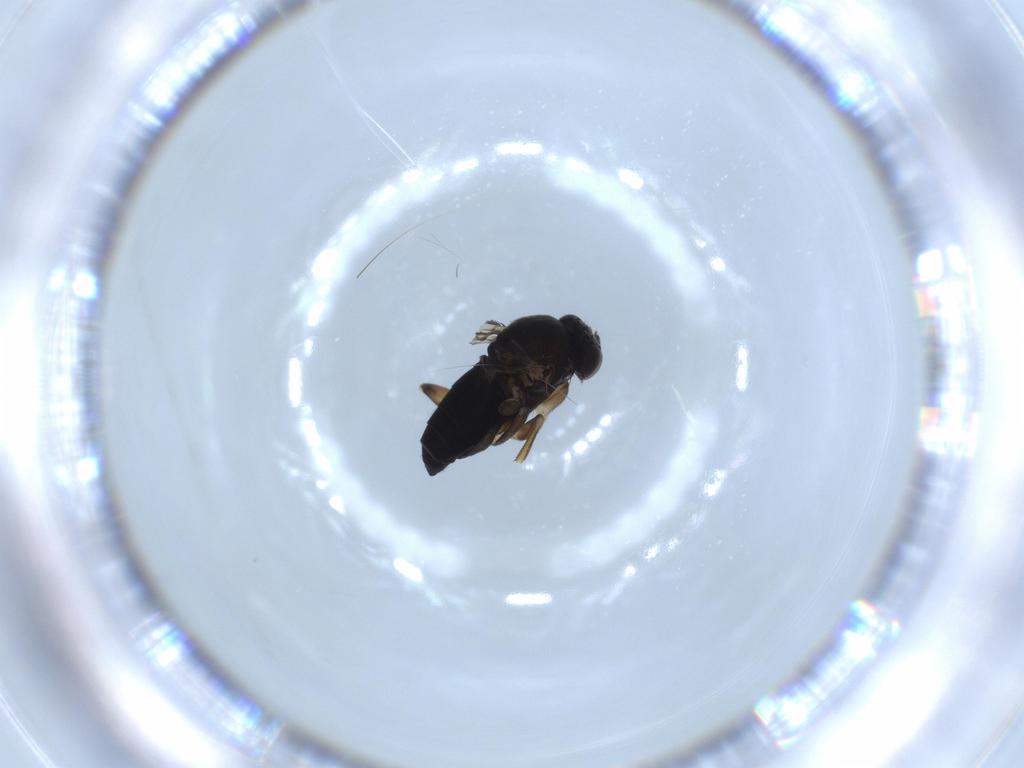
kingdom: Animalia
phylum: Arthropoda
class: Insecta
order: Diptera
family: Phoridae
